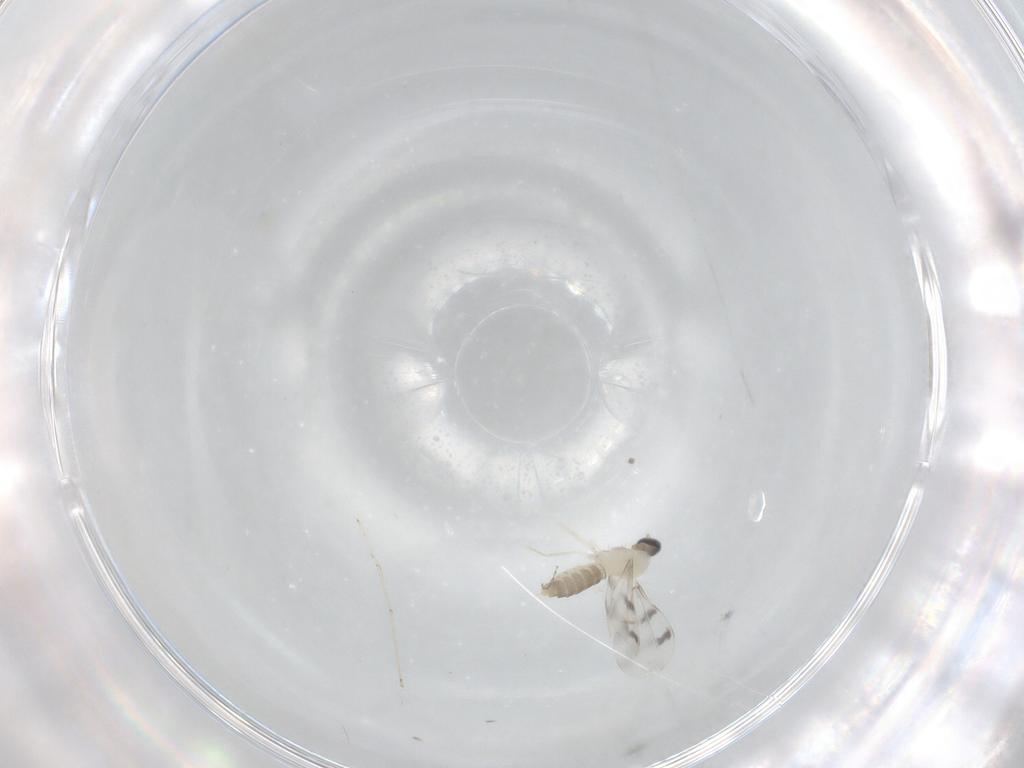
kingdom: Animalia
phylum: Arthropoda
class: Insecta
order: Diptera
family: Cecidomyiidae
